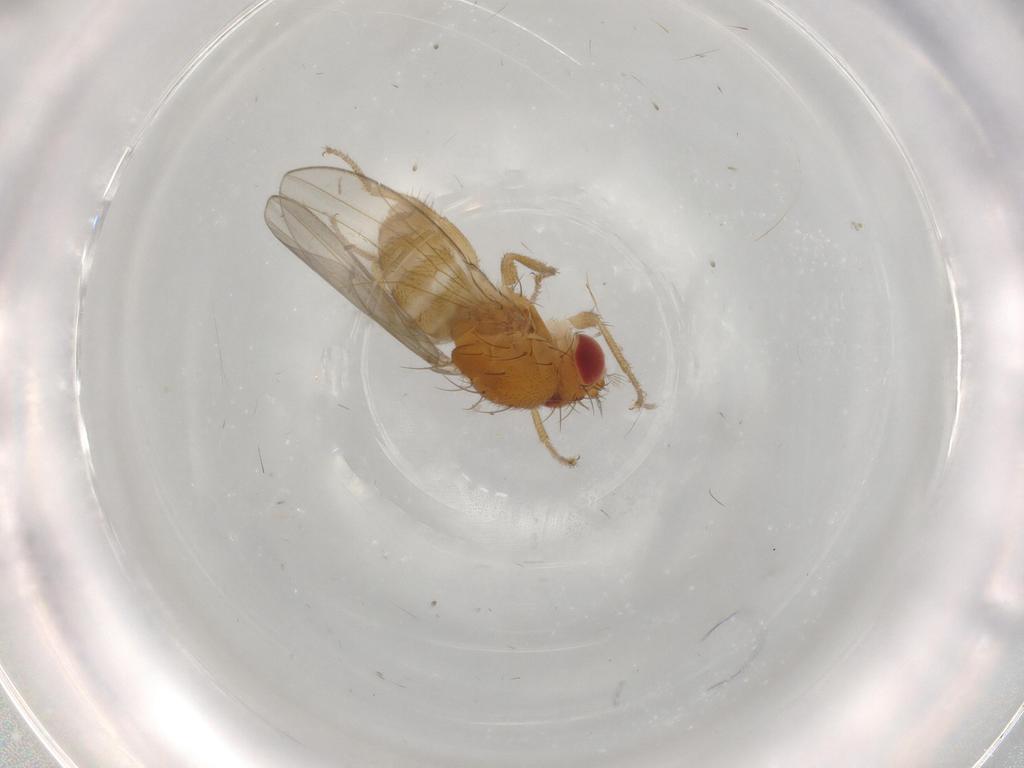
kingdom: Animalia
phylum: Arthropoda
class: Insecta
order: Diptera
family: Drosophilidae
